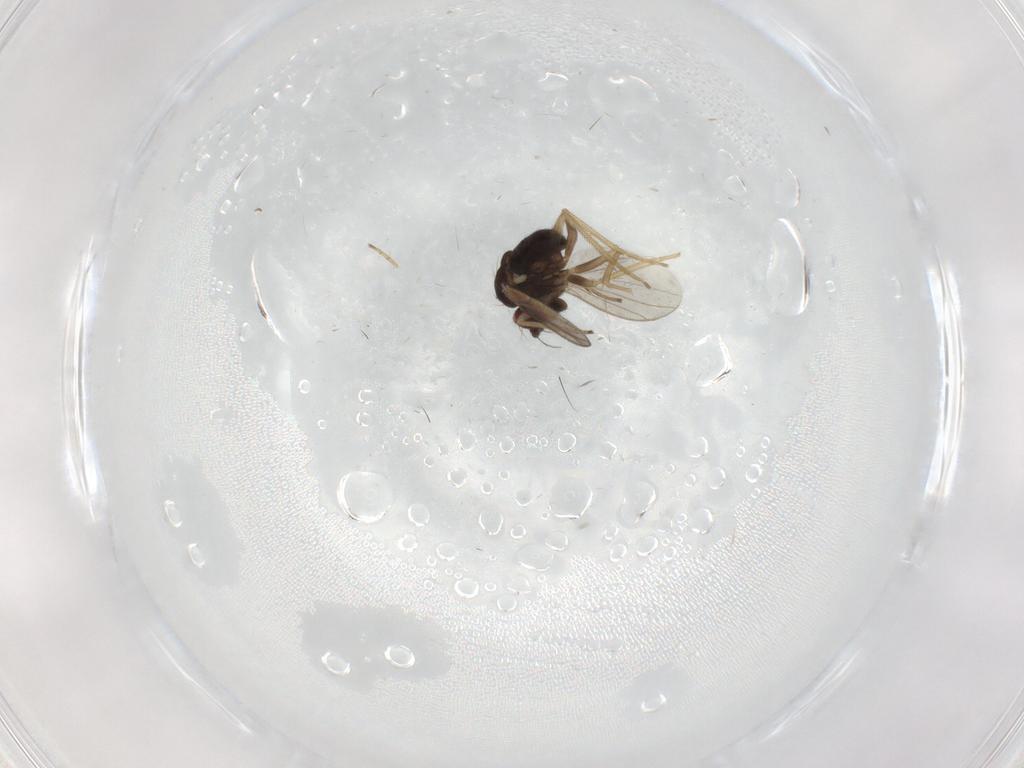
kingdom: Animalia
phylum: Arthropoda
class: Insecta
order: Diptera
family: Dolichopodidae
